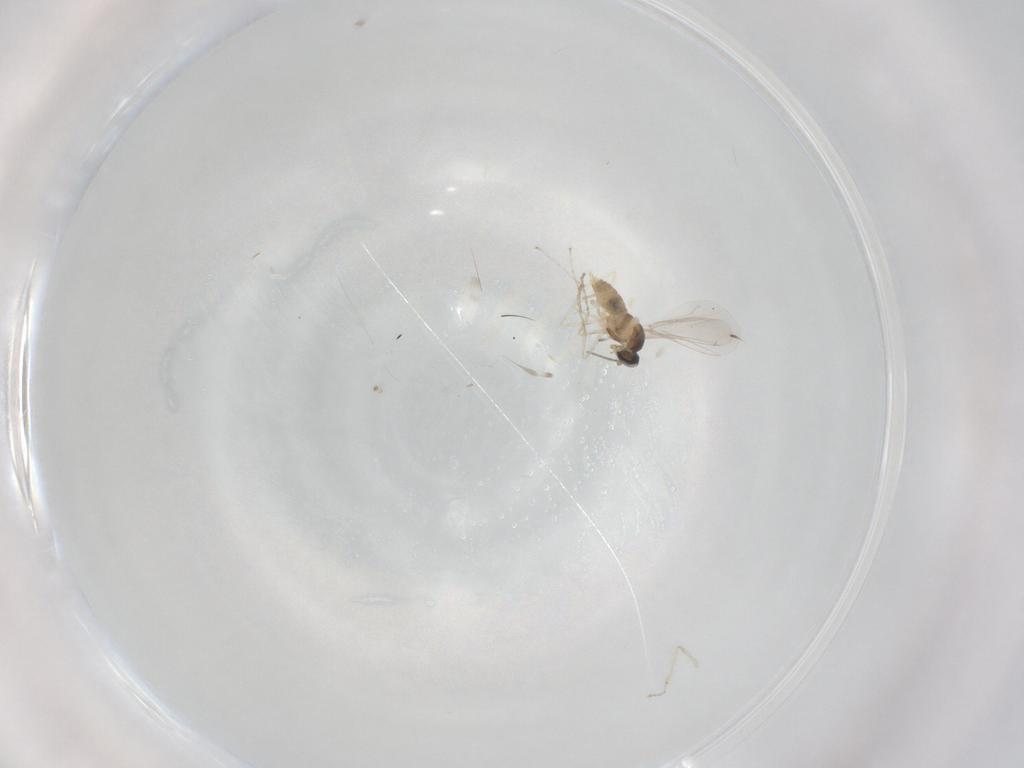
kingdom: Animalia
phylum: Arthropoda
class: Insecta
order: Diptera
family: Cecidomyiidae
